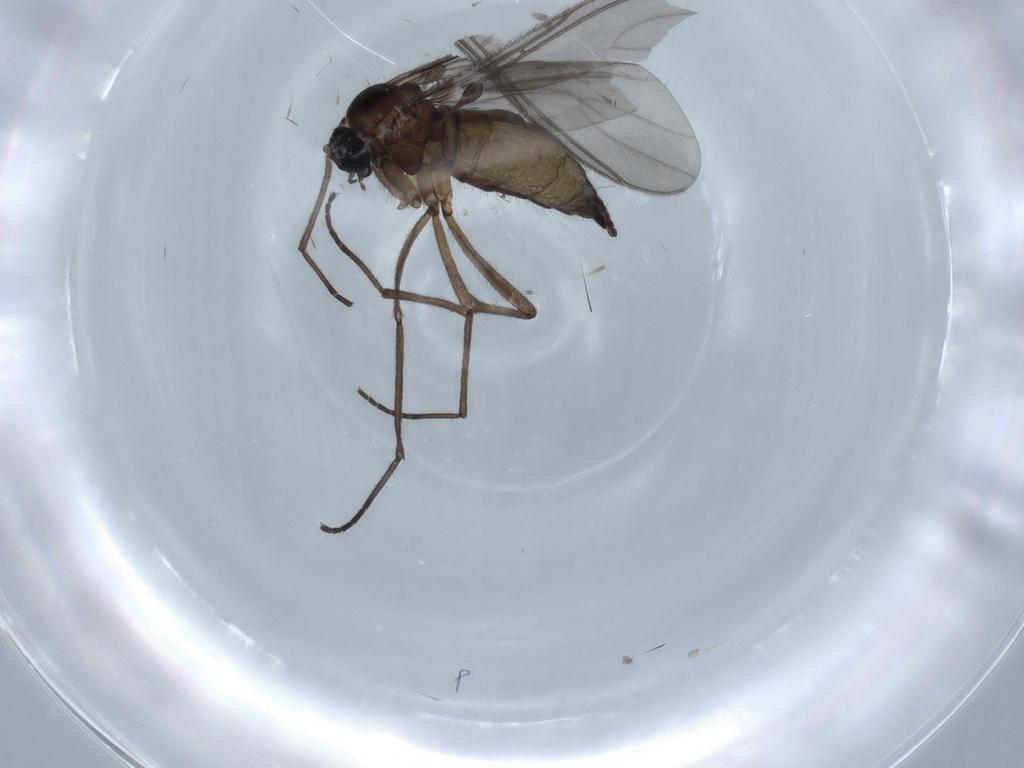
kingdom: Animalia
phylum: Arthropoda
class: Insecta
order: Diptera
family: Sciaridae
